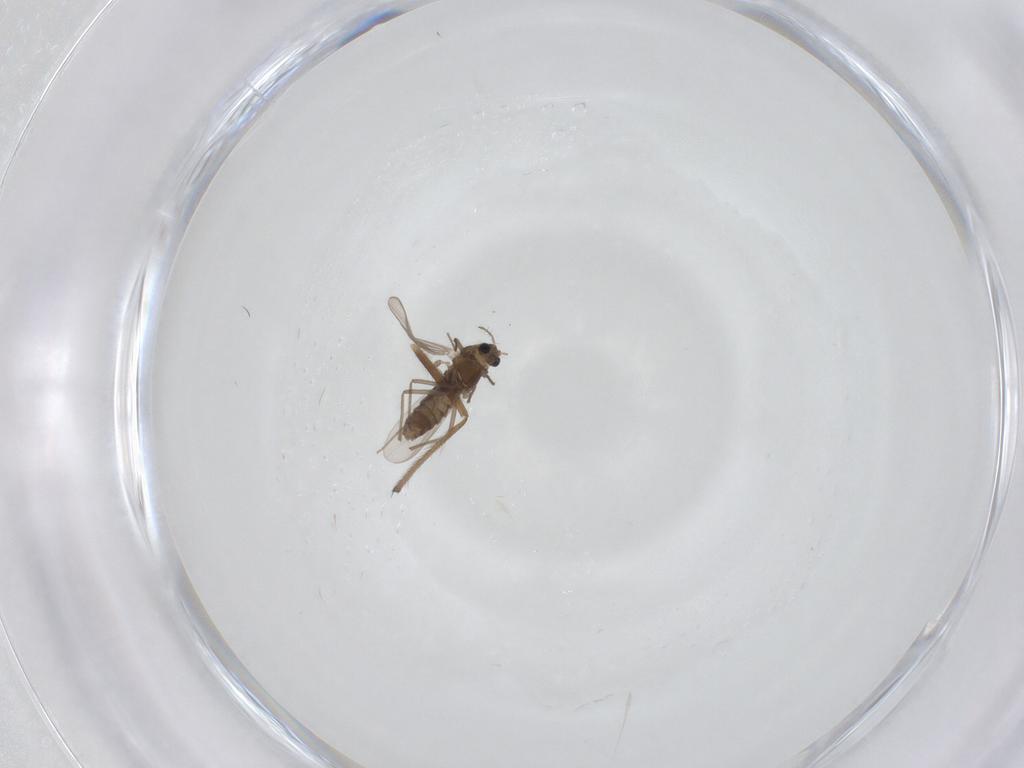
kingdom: Animalia
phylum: Arthropoda
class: Insecta
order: Diptera
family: Chironomidae
